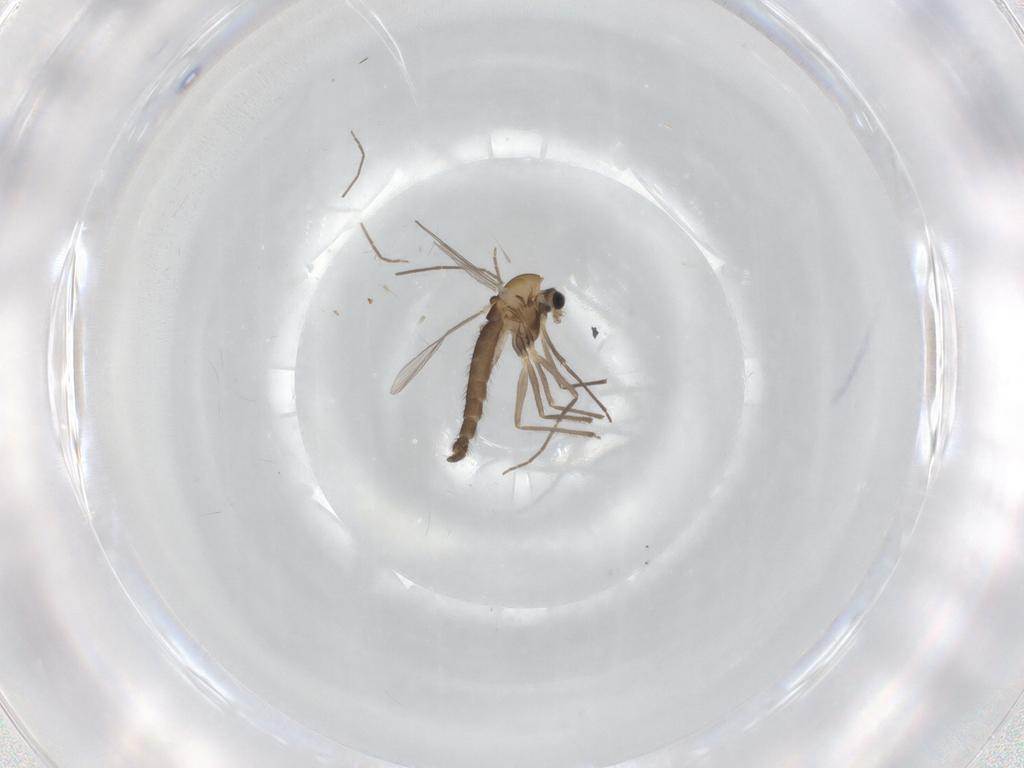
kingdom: Animalia
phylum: Arthropoda
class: Insecta
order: Diptera
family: Chironomidae
